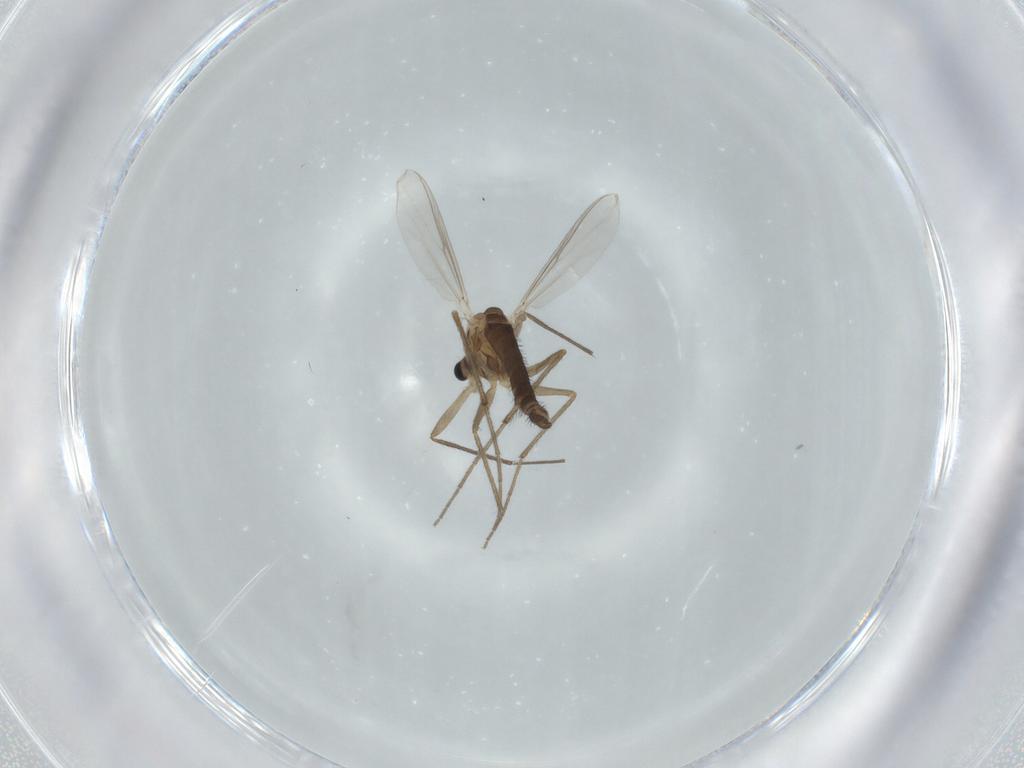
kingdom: Animalia
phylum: Arthropoda
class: Insecta
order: Diptera
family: Chironomidae
